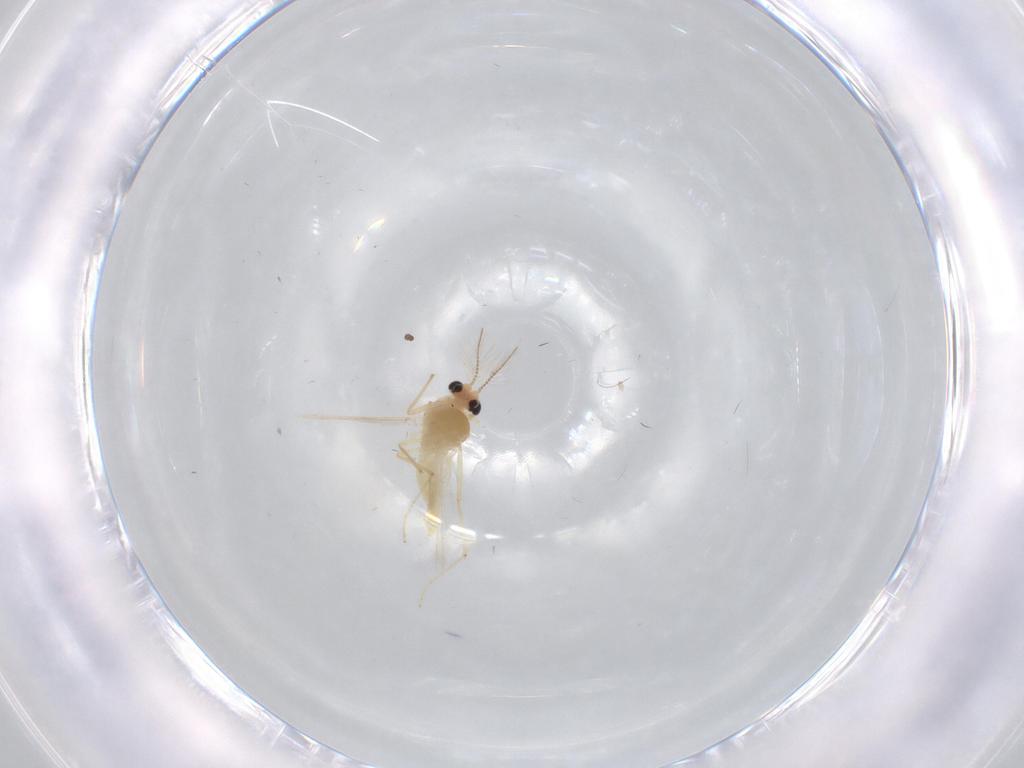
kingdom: Animalia
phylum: Arthropoda
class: Insecta
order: Diptera
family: Cecidomyiidae
